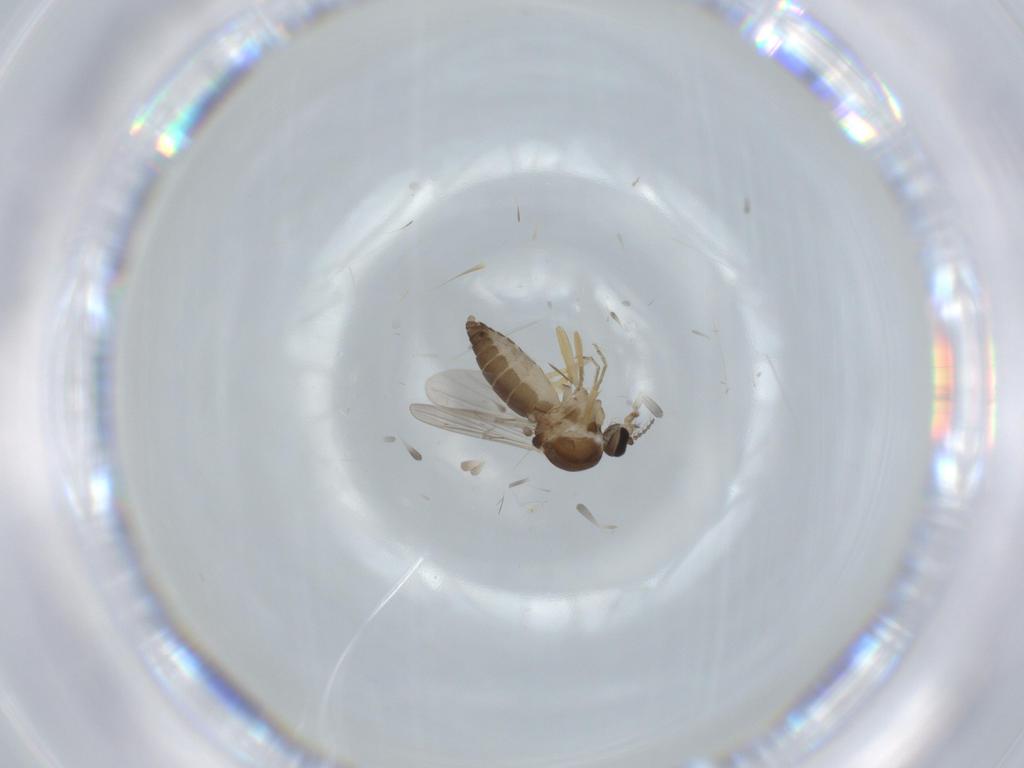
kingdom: Animalia
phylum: Arthropoda
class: Insecta
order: Diptera
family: Ceratopogonidae
